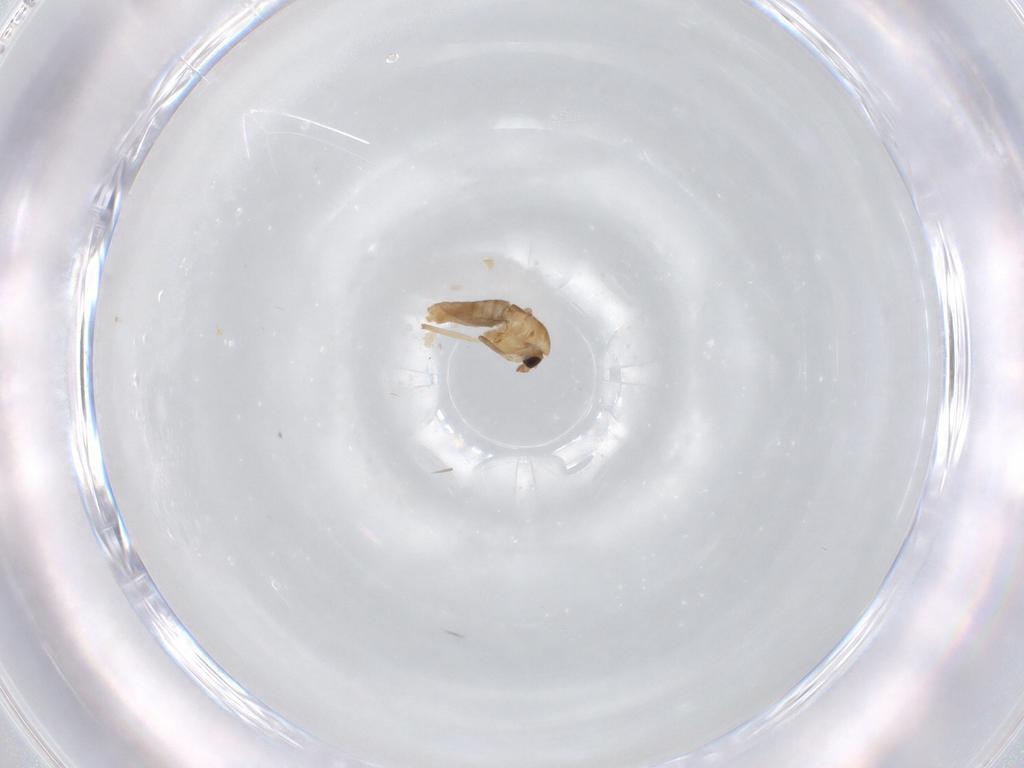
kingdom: Animalia
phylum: Arthropoda
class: Insecta
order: Diptera
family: Chironomidae
